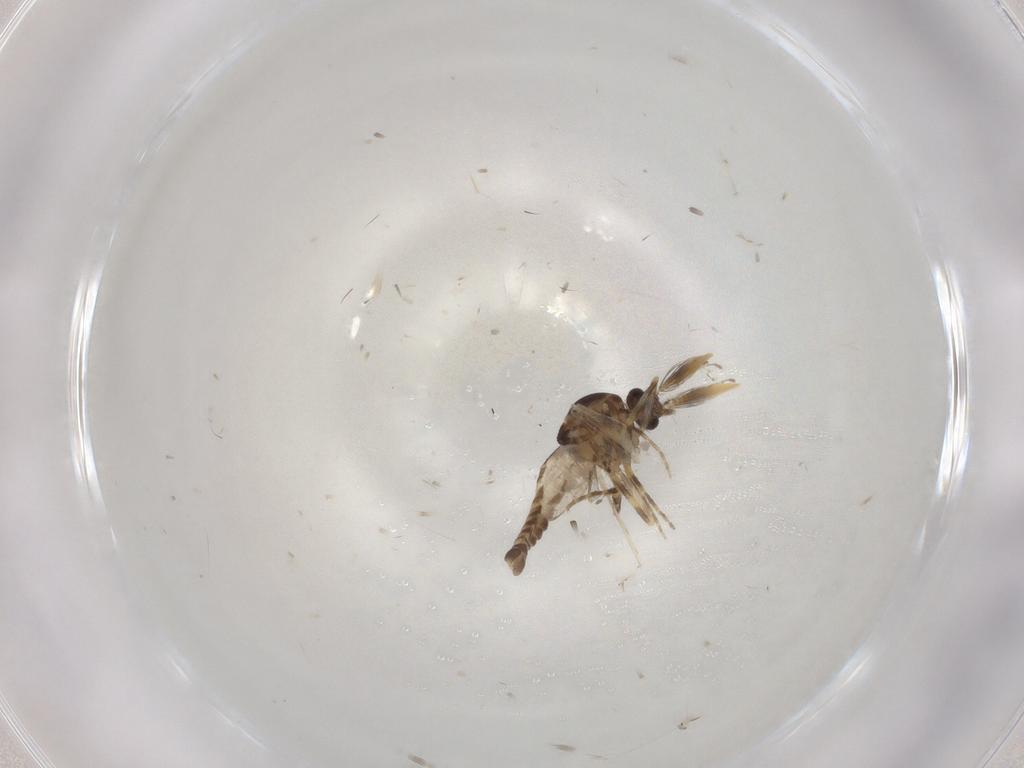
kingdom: Animalia
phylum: Arthropoda
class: Insecta
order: Diptera
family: Ceratopogonidae
